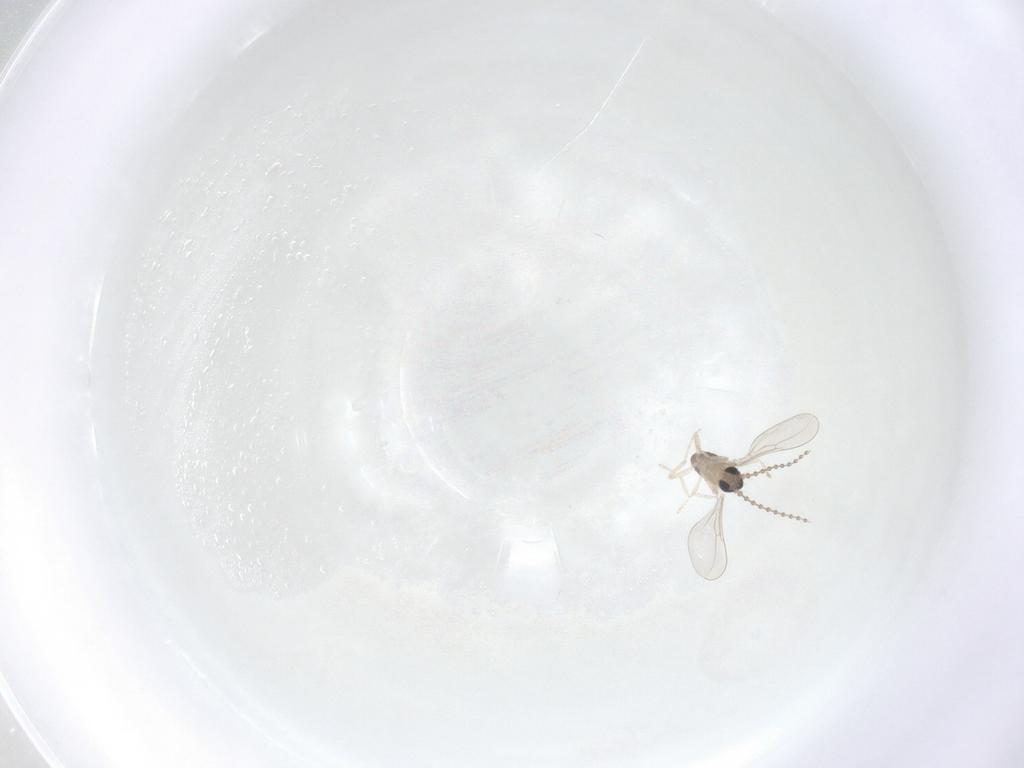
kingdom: Animalia
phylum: Arthropoda
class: Insecta
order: Diptera
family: Cecidomyiidae
